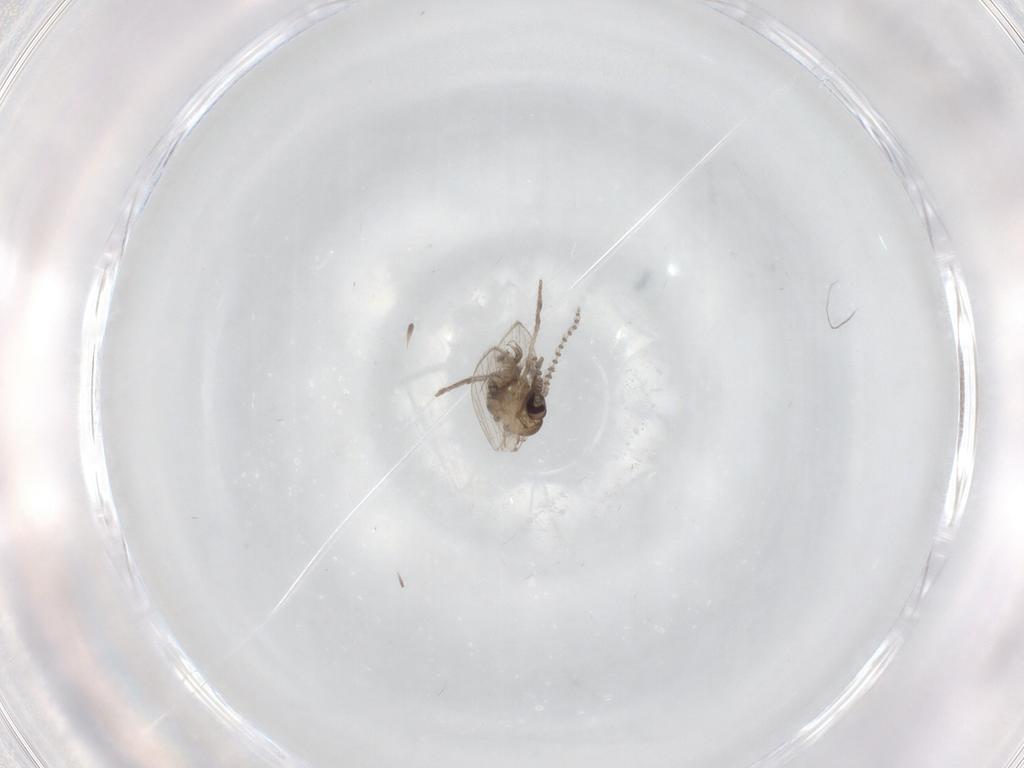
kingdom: Animalia
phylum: Arthropoda
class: Insecta
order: Diptera
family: Psychodidae
